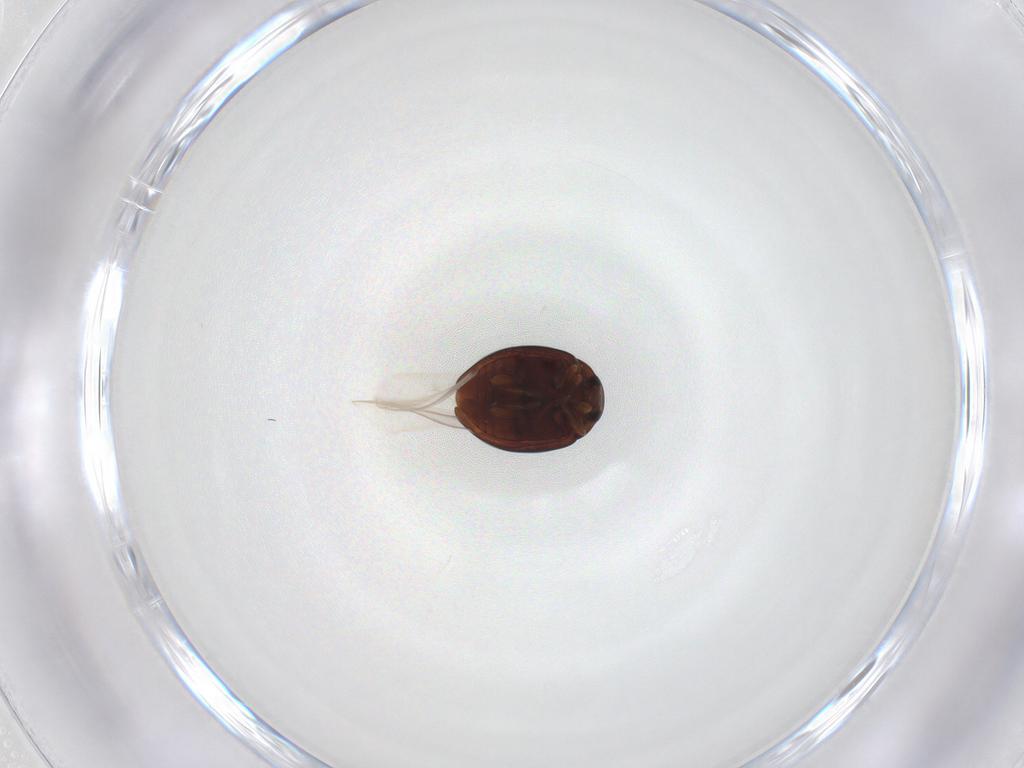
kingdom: Animalia
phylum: Arthropoda
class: Insecta
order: Coleoptera
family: Coccinellidae
